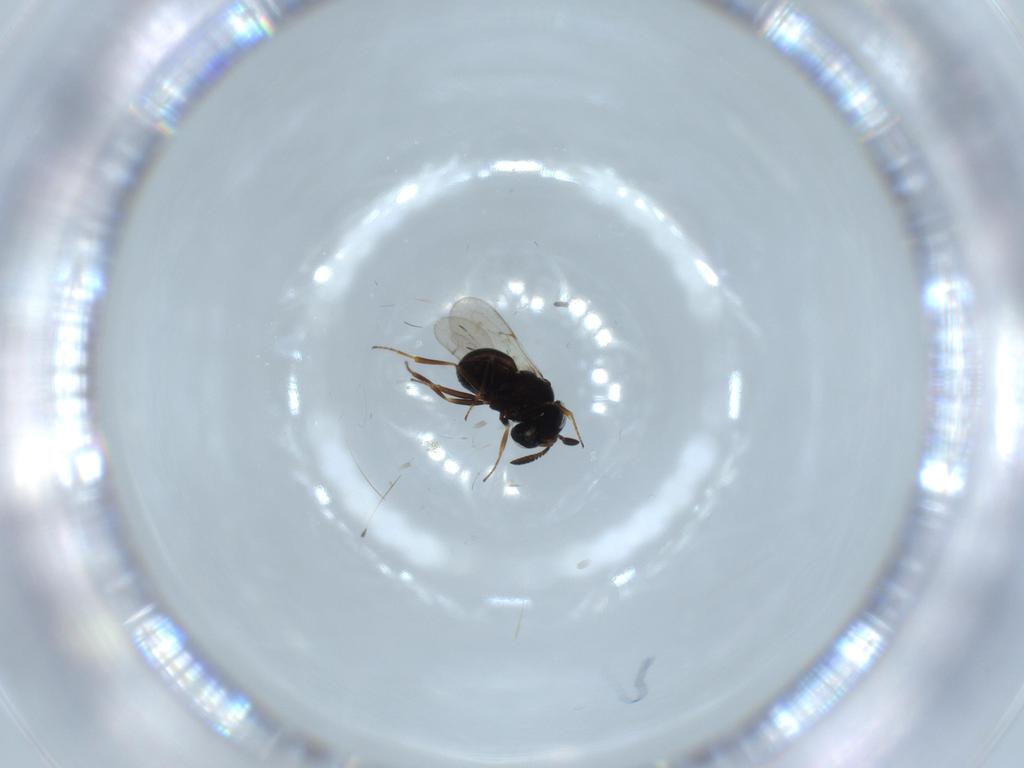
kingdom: Animalia
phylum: Arthropoda
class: Insecta
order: Hymenoptera
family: Scelionidae
